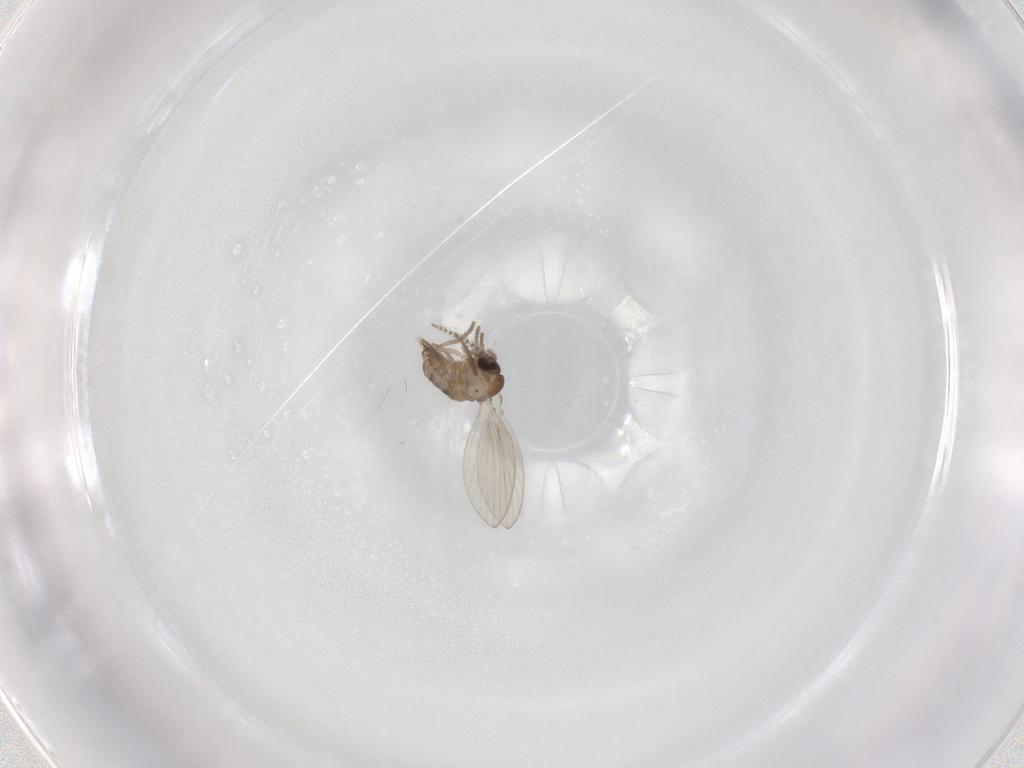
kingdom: Animalia
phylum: Arthropoda
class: Insecta
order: Diptera
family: Psychodidae
